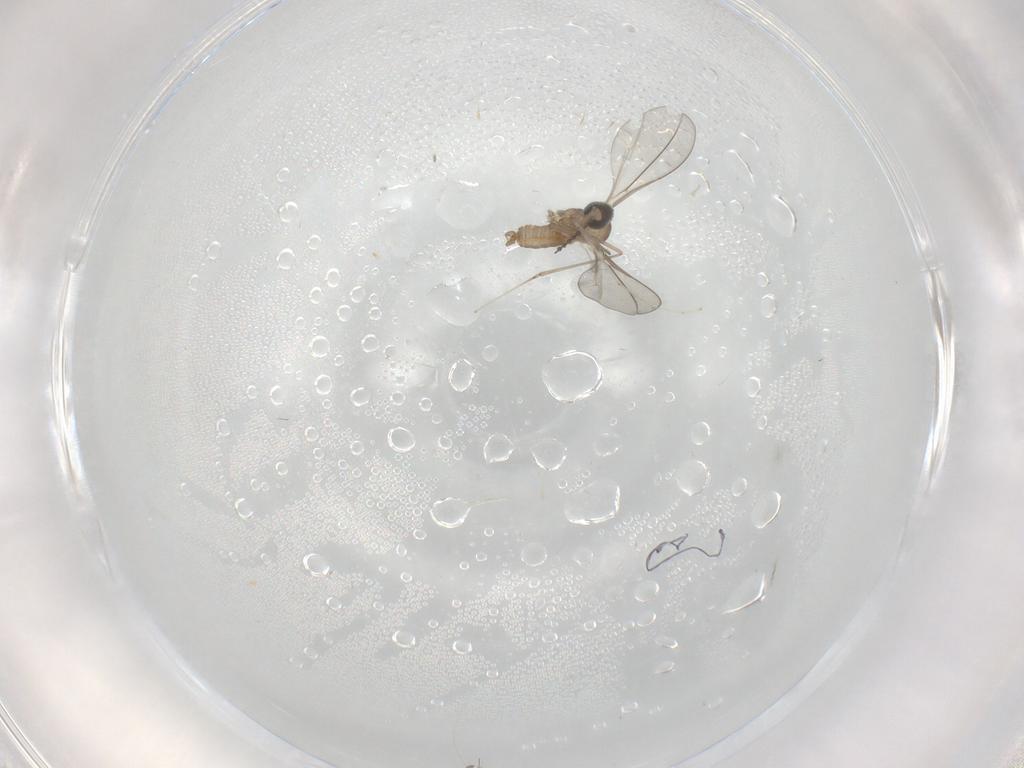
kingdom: Animalia
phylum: Arthropoda
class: Insecta
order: Diptera
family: Cecidomyiidae
